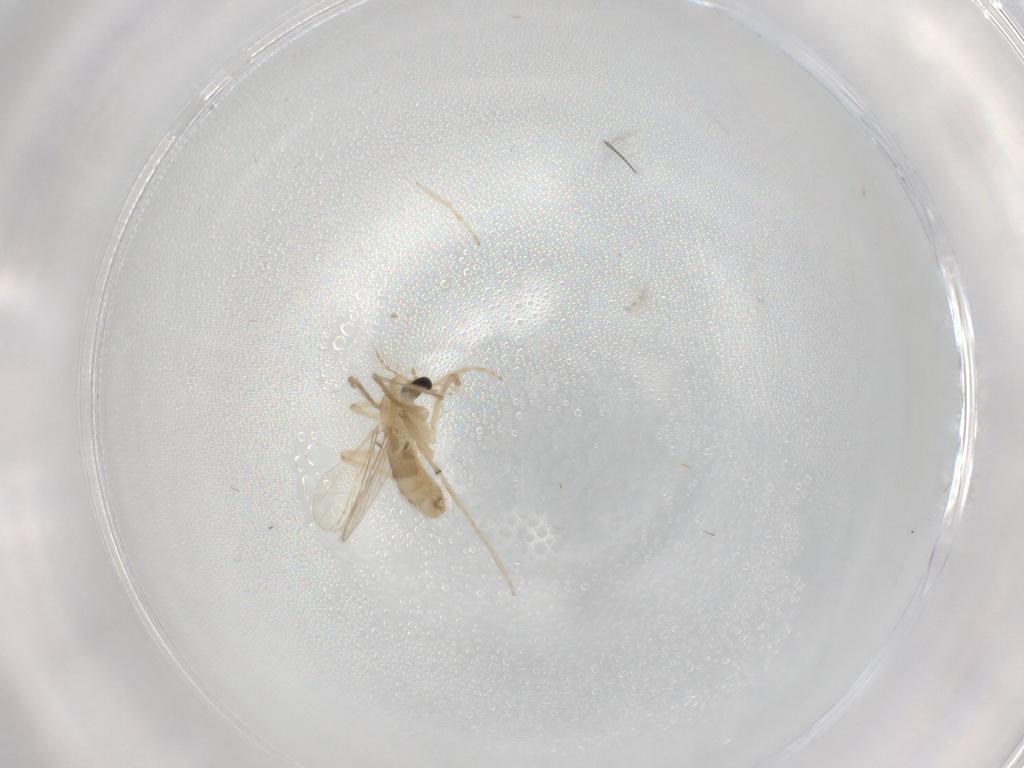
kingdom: Animalia
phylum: Arthropoda
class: Insecta
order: Diptera
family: Chironomidae
